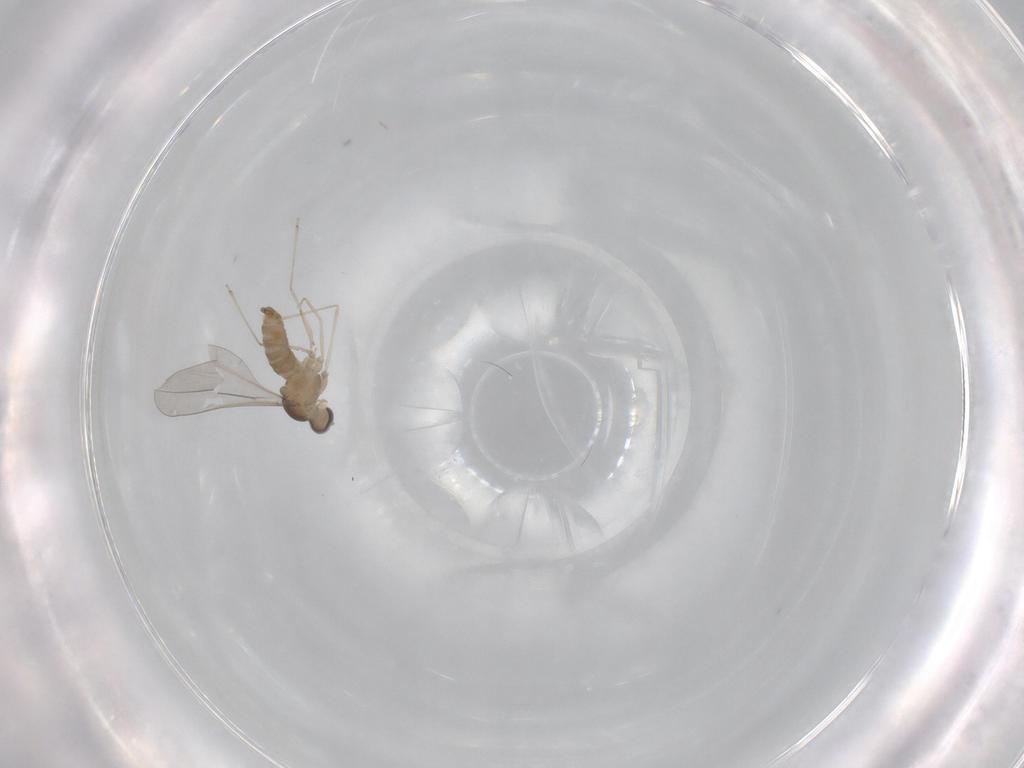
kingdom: Animalia
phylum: Arthropoda
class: Insecta
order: Diptera
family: Cecidomyiidae
